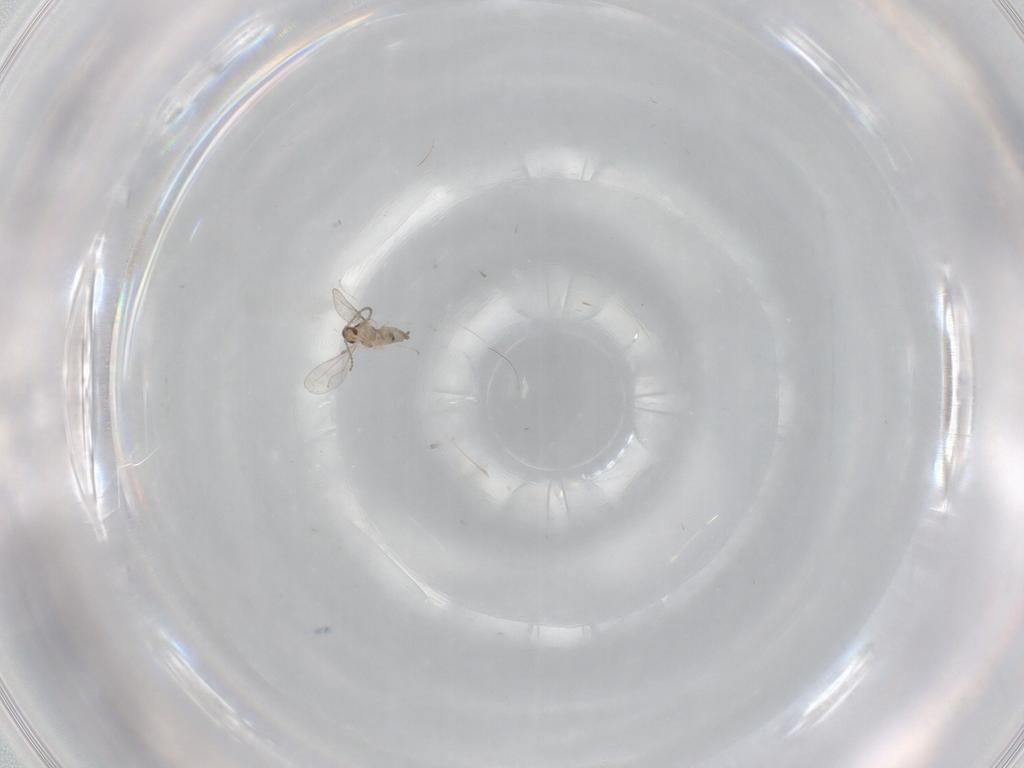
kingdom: Animalia
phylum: Arthropoda
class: Insecta
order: Diptera
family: Cecidomyiidae
